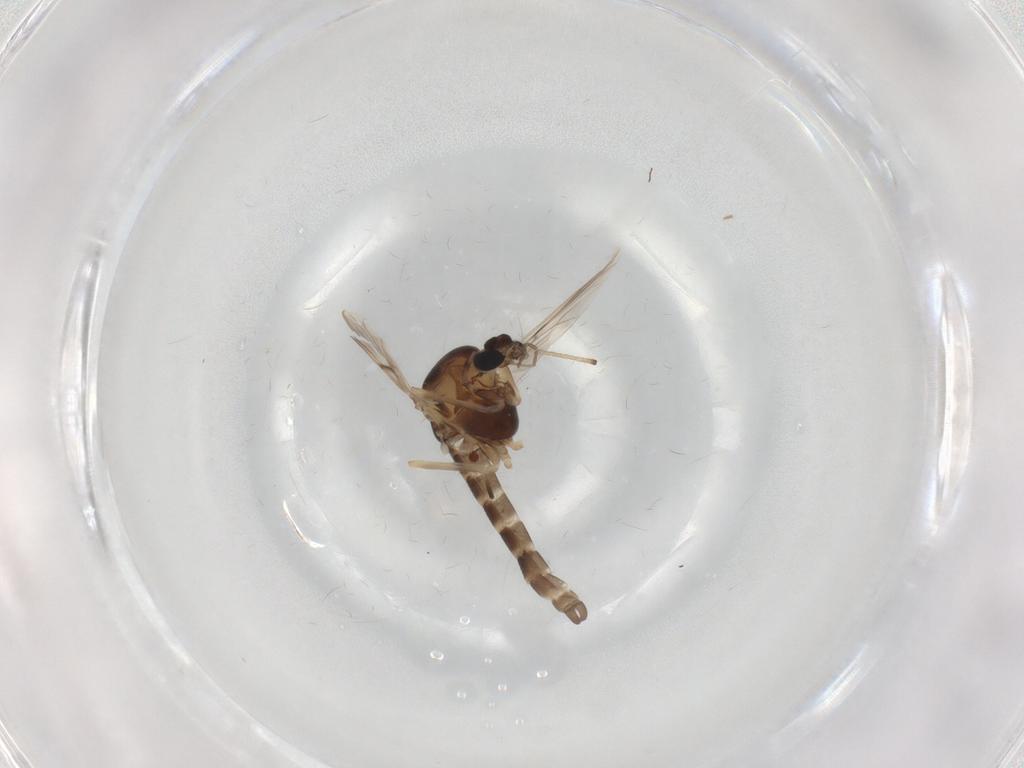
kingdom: Animalia
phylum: Arthropoda
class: Insecta
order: Diptera
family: Chironomidae
